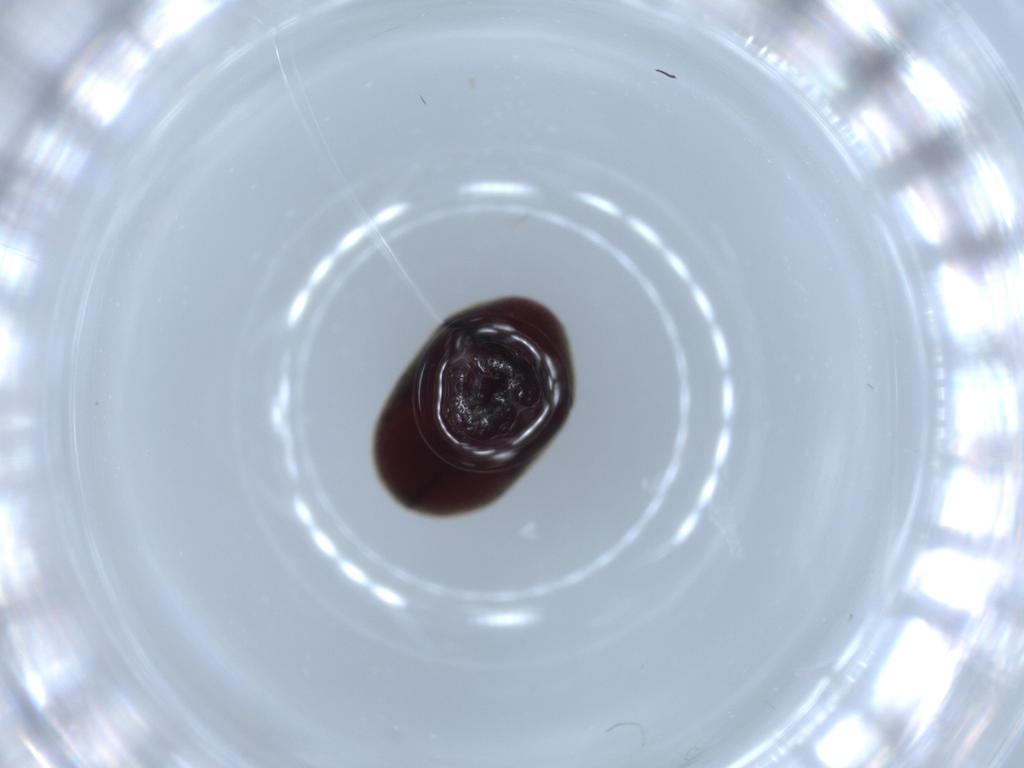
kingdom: Animalia
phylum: Arthropoda
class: Insecta
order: Coleoptera
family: Ptinidae
